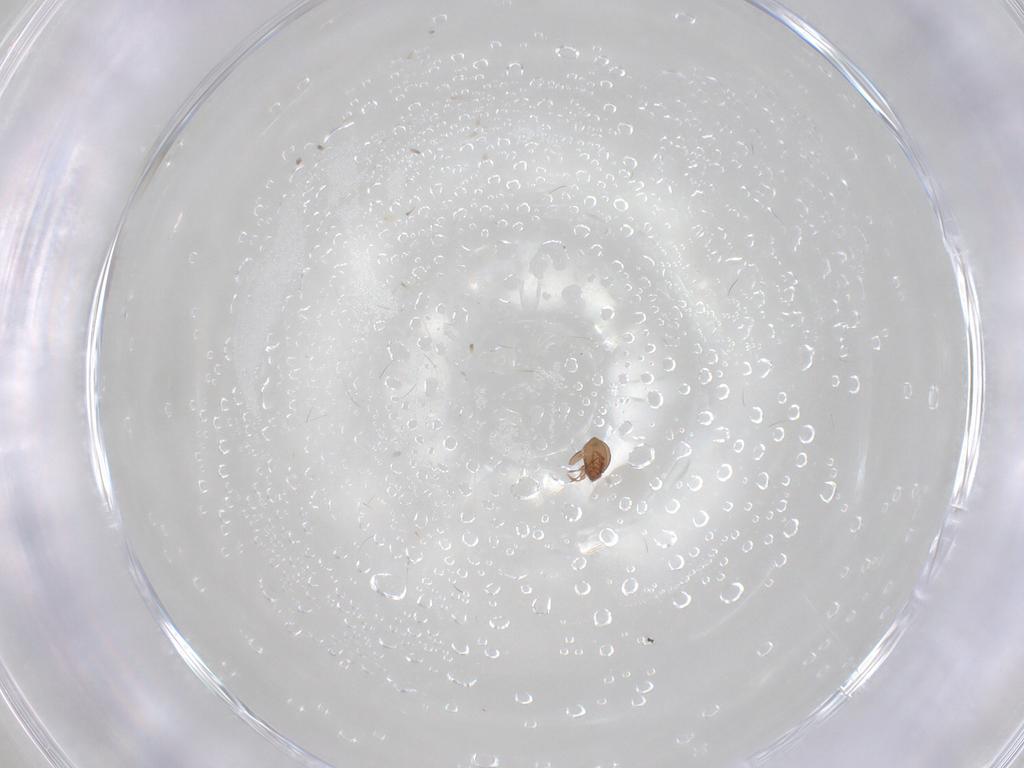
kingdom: Animalia
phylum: Arthropoda
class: Arachnida
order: Sarcoptiformes
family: Scheloribatidae
